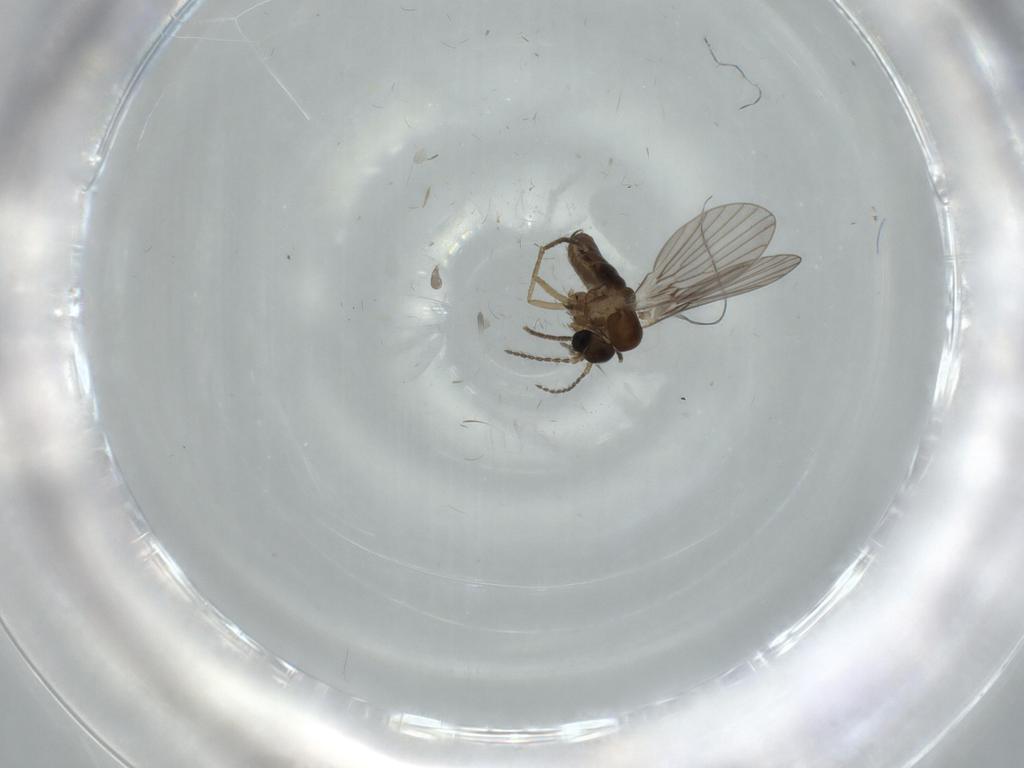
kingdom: Animalia
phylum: Arthropoda
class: Insecta
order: Diptera
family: Psychodidae
